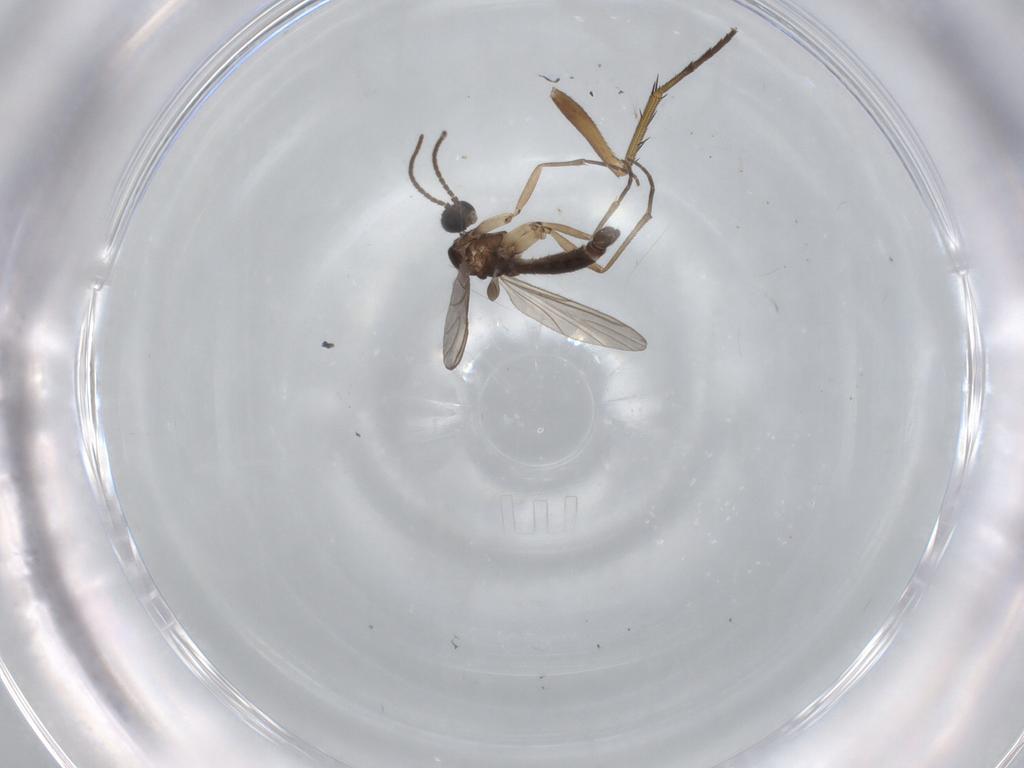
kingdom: Animalia
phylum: Arthropoda
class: Insecta
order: Diptera
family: Chironomidae
